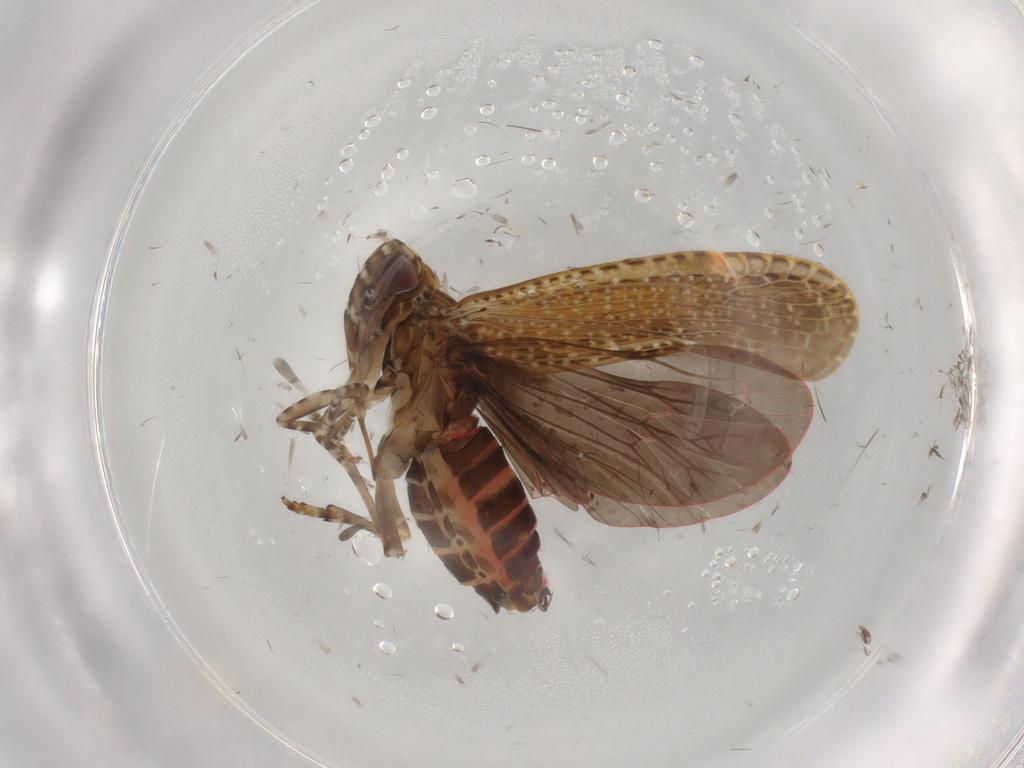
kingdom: Animalia
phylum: Arthropoda
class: Insecta
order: Hemiptera
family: Achilidae
